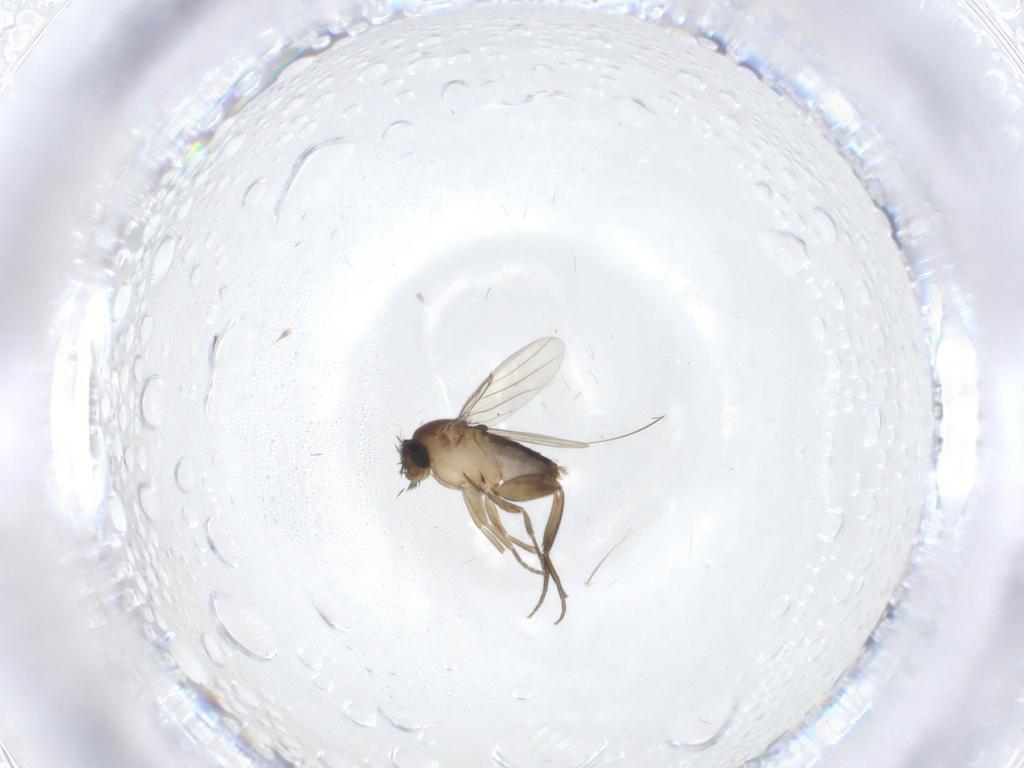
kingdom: Animalia
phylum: Arthropoda
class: Insecta
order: Diptera
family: Phoridae
